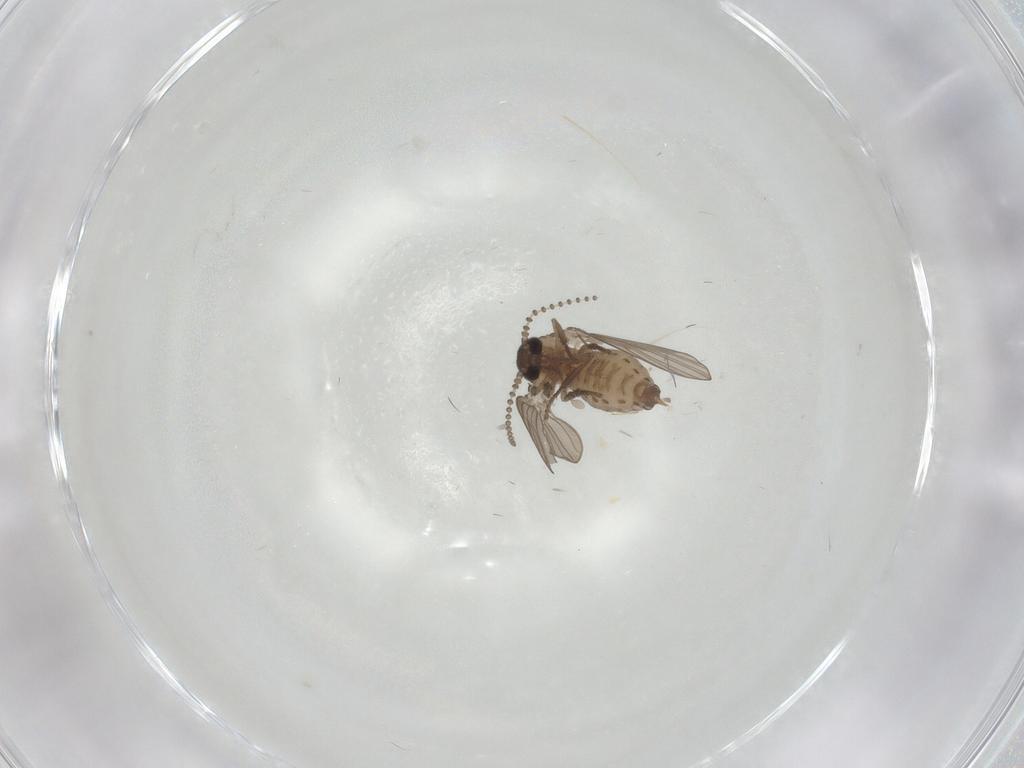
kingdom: Animalia
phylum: Arthropoda
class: Insecta
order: Diptera
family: Psychodidae
